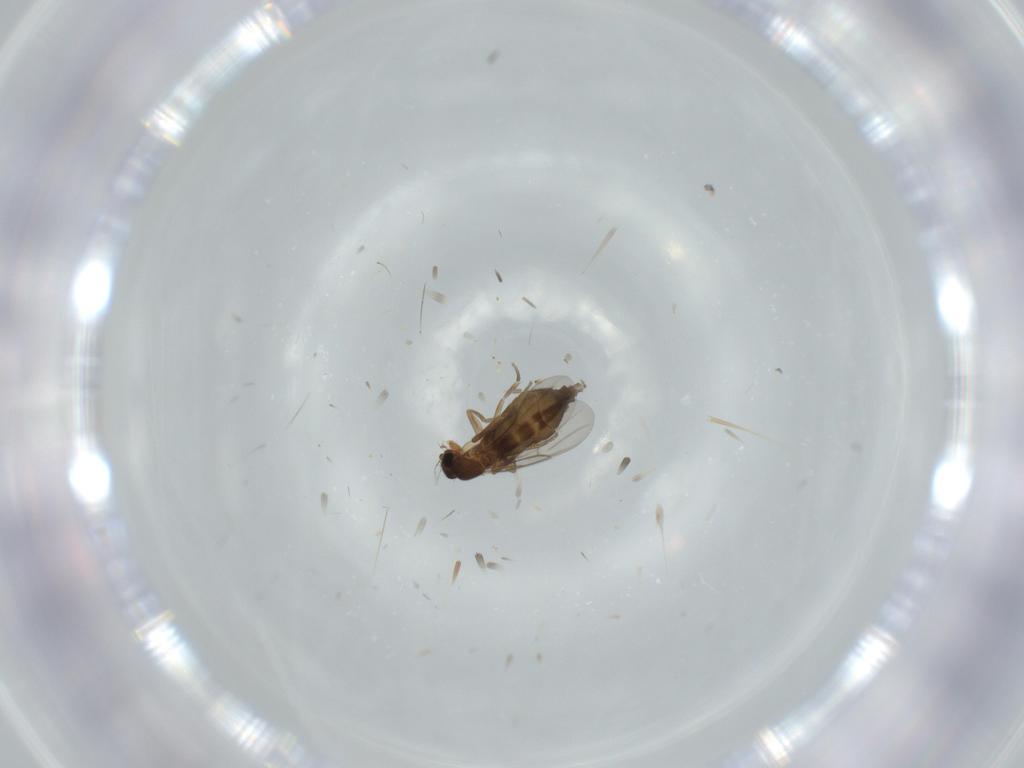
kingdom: Animalia
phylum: Arthropoda
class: Insecta
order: Diptera
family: Phoridae
